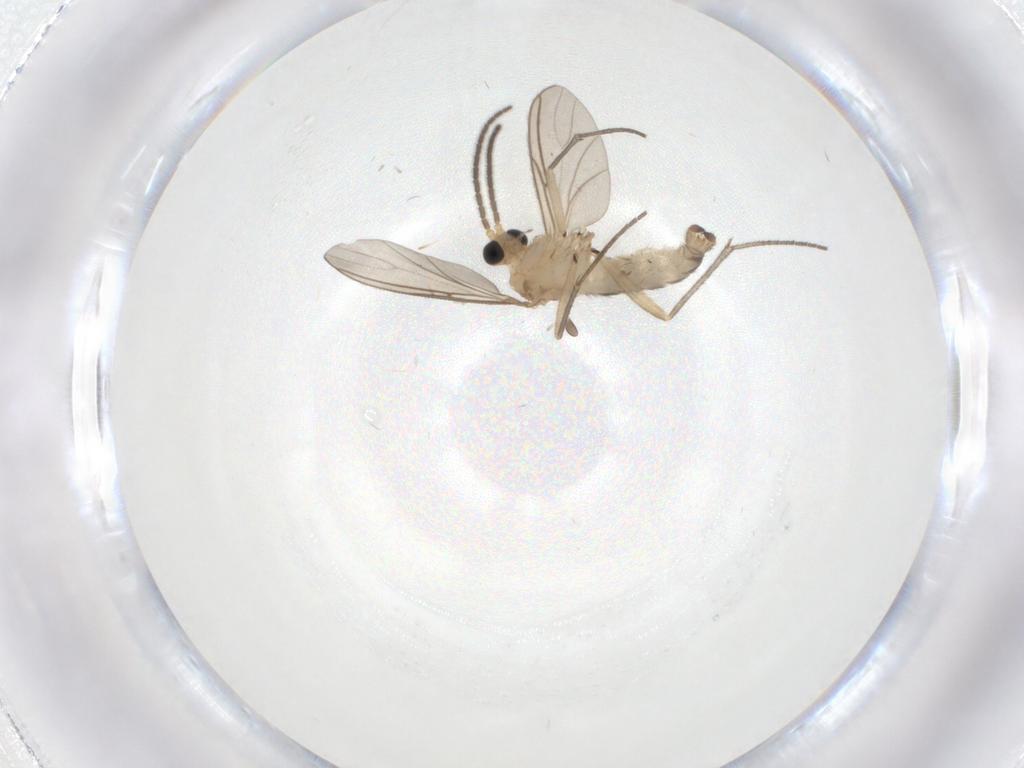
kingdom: Animalia
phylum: Arthropoda
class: Insecta
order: Diptera
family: Sciaridae
